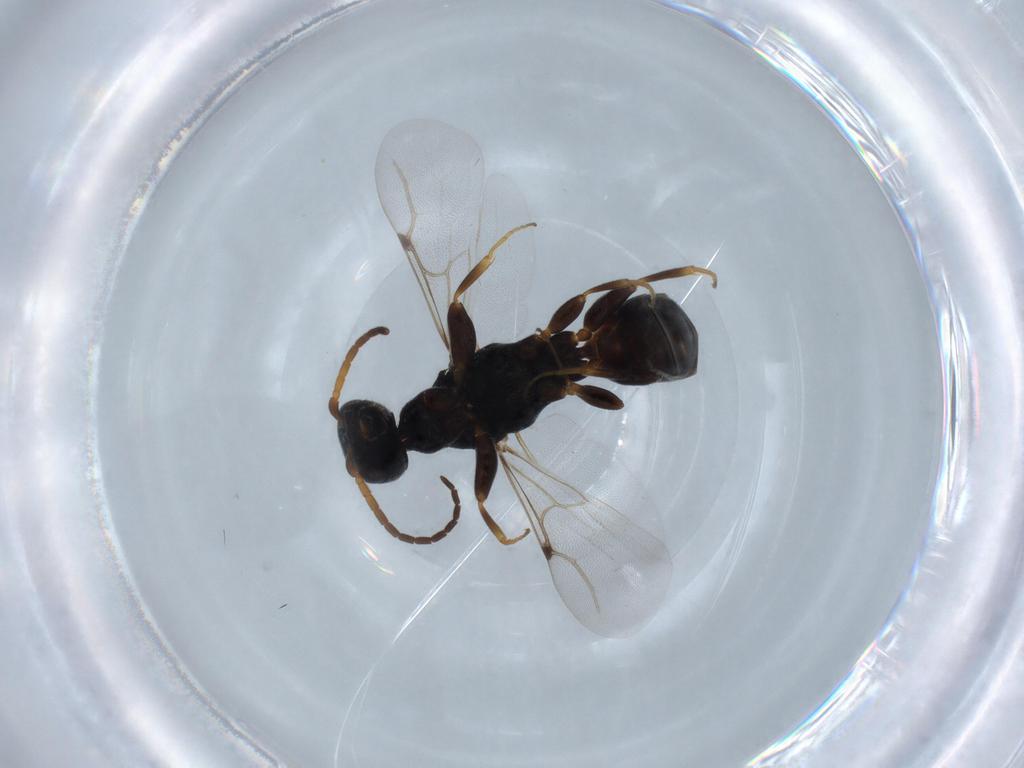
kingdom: Animalia
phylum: Arthropoda
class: Insecta
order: Hymenoptera
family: Bethylidae
